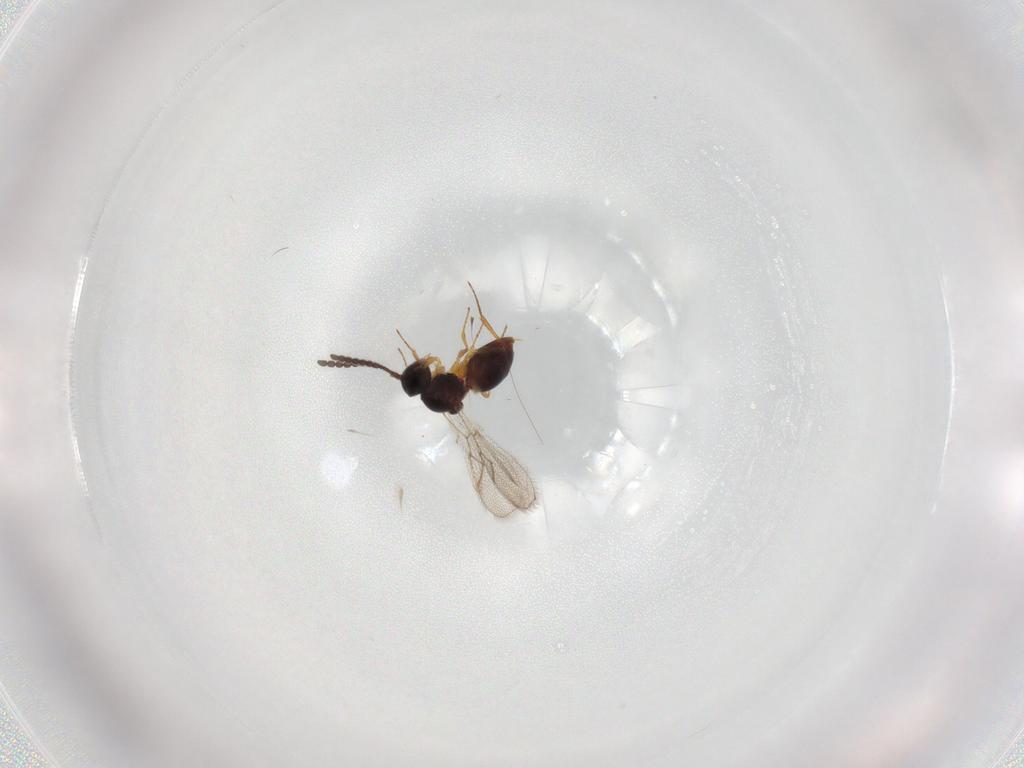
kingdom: Animalia
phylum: Arthropoda
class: Insecta
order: Hymenoptera
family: Figitidae
